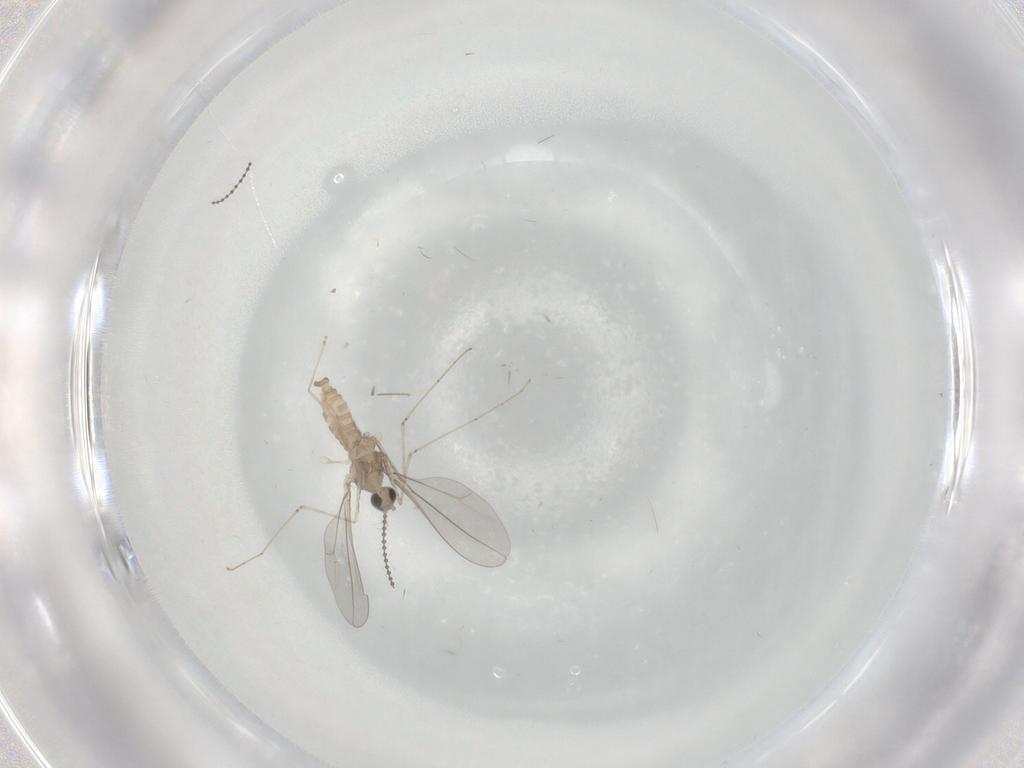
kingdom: Animalia
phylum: Arthropoda
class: Insecta
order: Diptera
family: Cecidomyiidae
